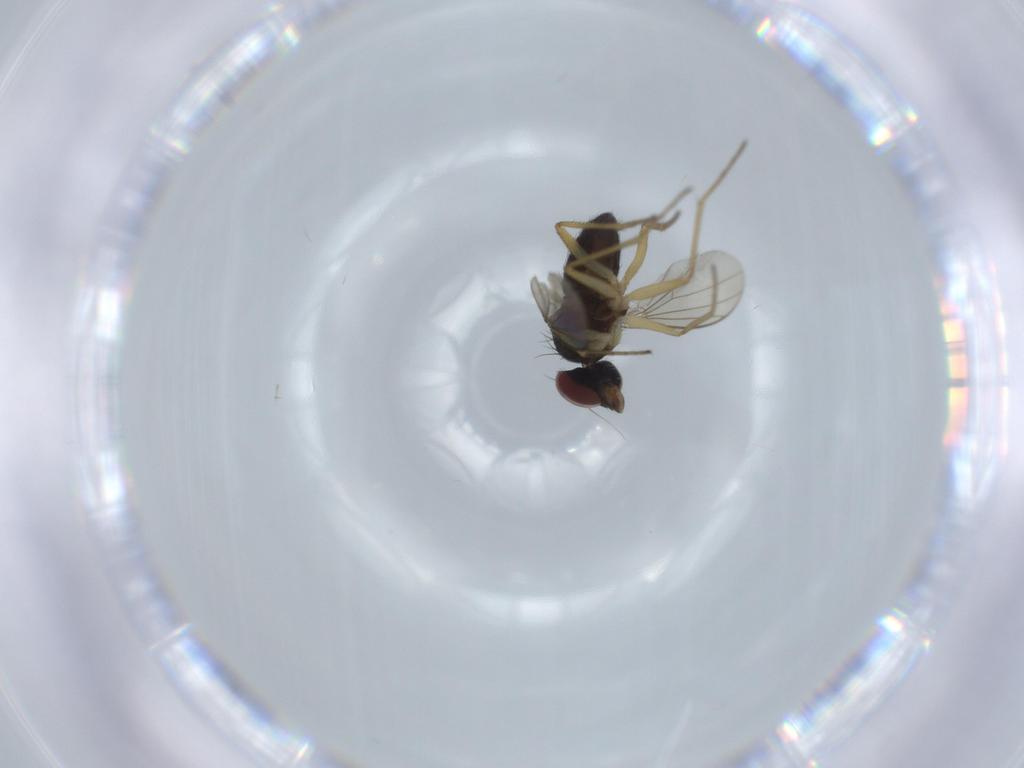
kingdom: Animalia
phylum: Arthropoda
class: Insecta
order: Diptera
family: Dolichopodidae
